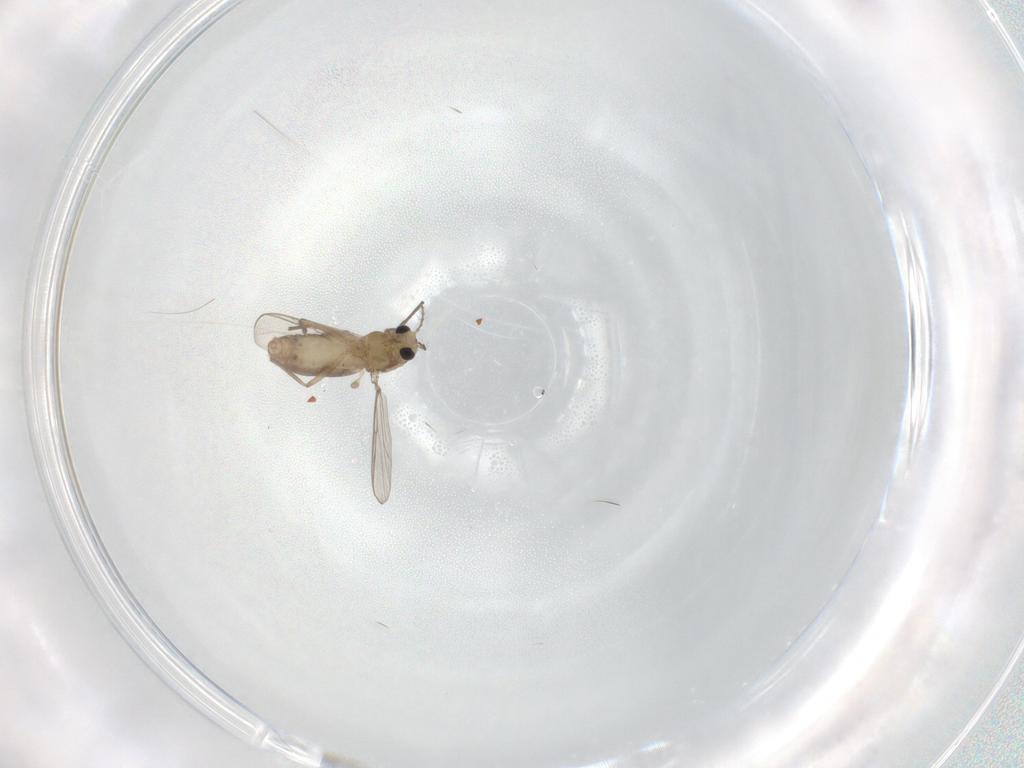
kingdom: Animalia
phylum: Arthropoda
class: Insecta
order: Diptera
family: Chironomidae
